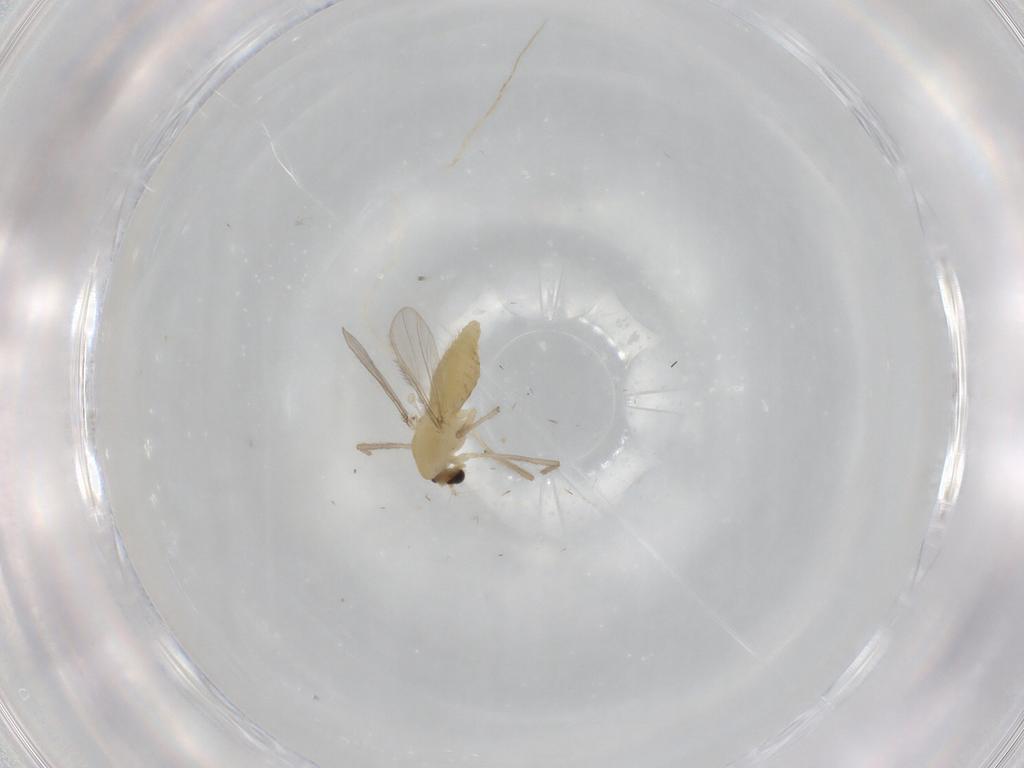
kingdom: Animalia
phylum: Arthropoda
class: Insecta
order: Diptera
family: Chironomidae
